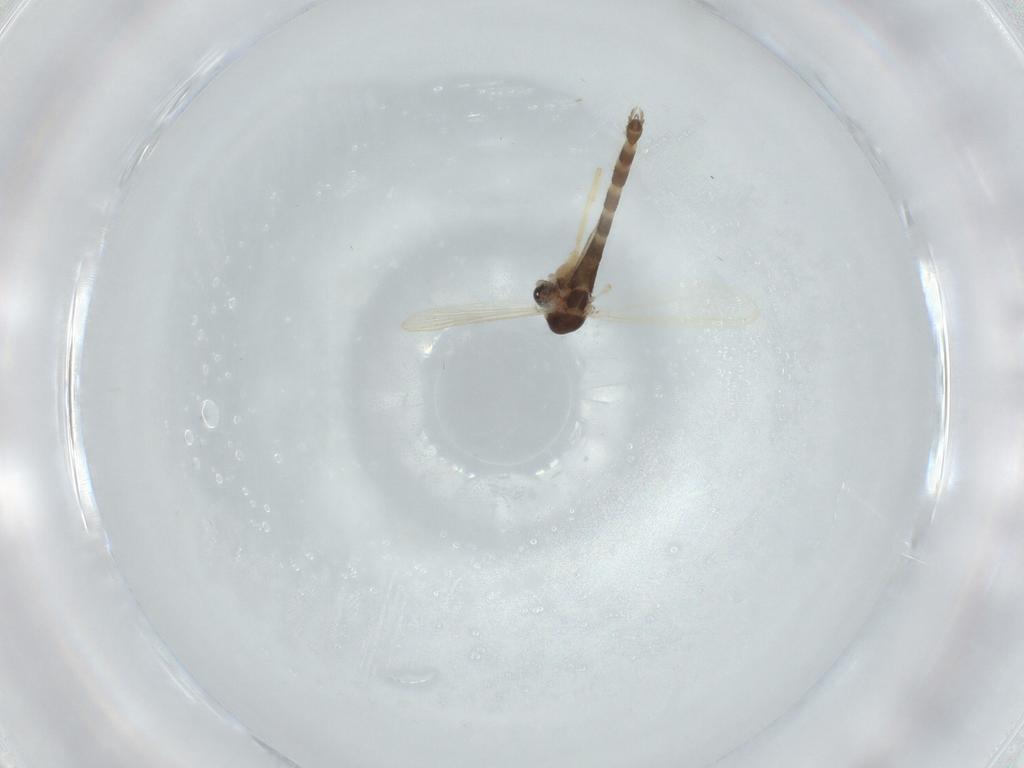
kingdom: Animalia
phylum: Arthropoda
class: Insecta
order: Diptera
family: Chironomidae
